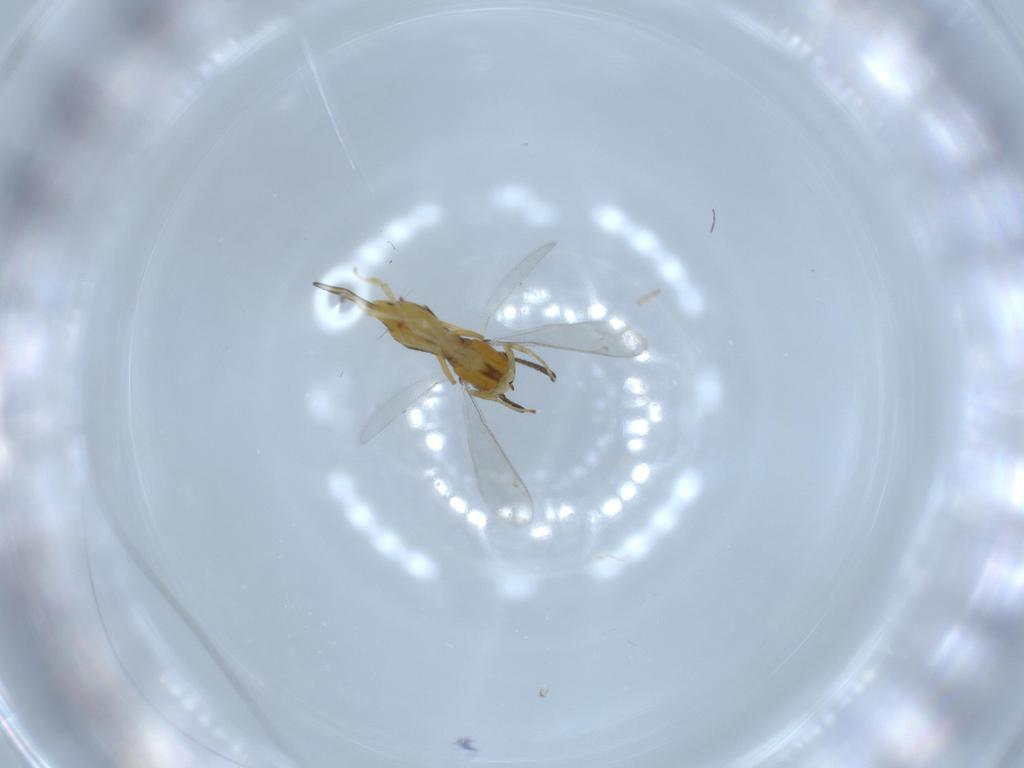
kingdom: Animalia
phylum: Arthropoda
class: Insecta
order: Hymenoptera
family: Eupelmidae
